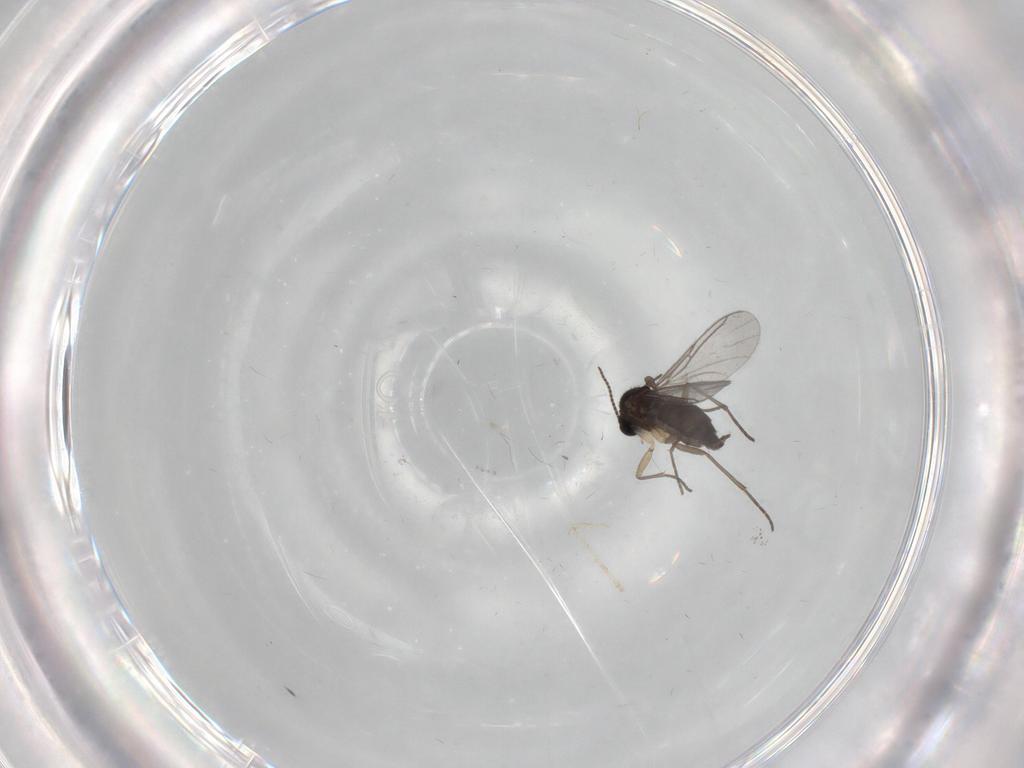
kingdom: Animalia
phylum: Arthropoda
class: Insecta
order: Diptera
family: Sciaridae
